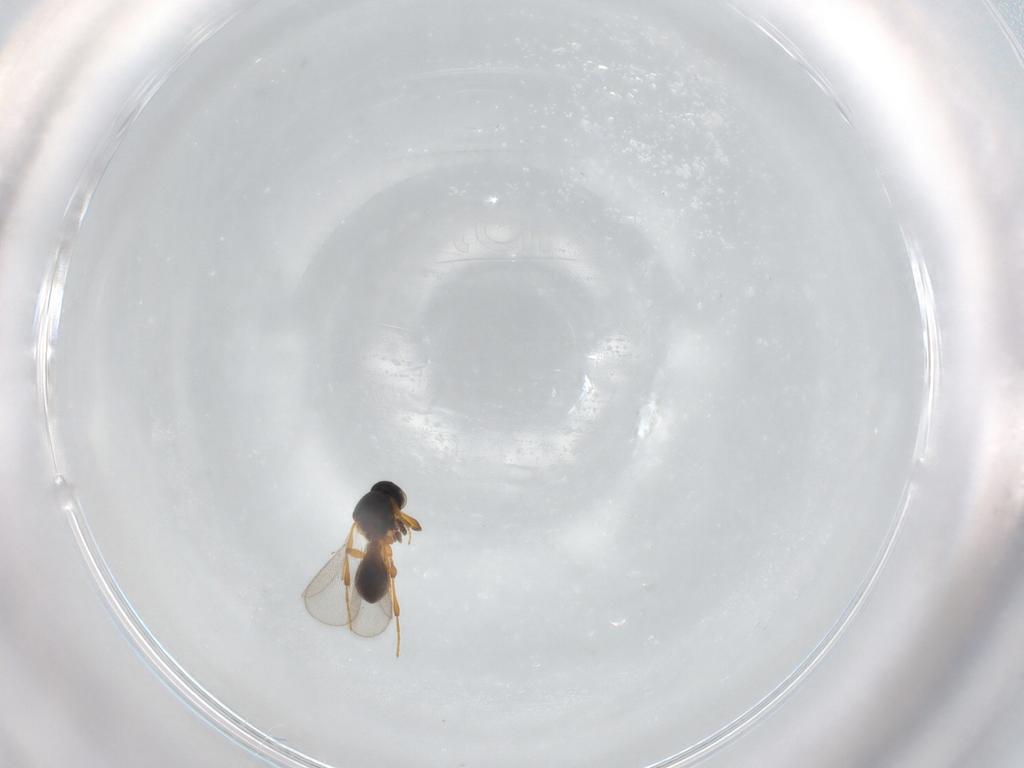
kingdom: Animalia
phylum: Arthropoda
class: Insecta
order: Hymenoptera
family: Platygastridae
